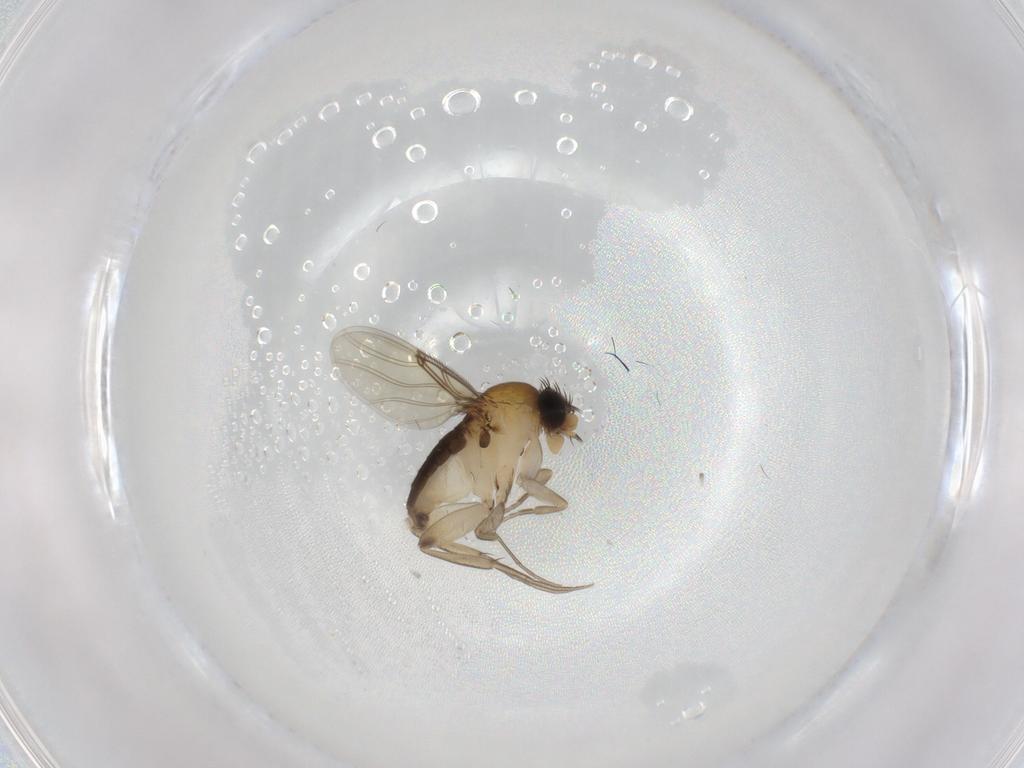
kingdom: Animalia
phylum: Arthropoda
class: Insecta
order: Diptera
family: Phoridae
